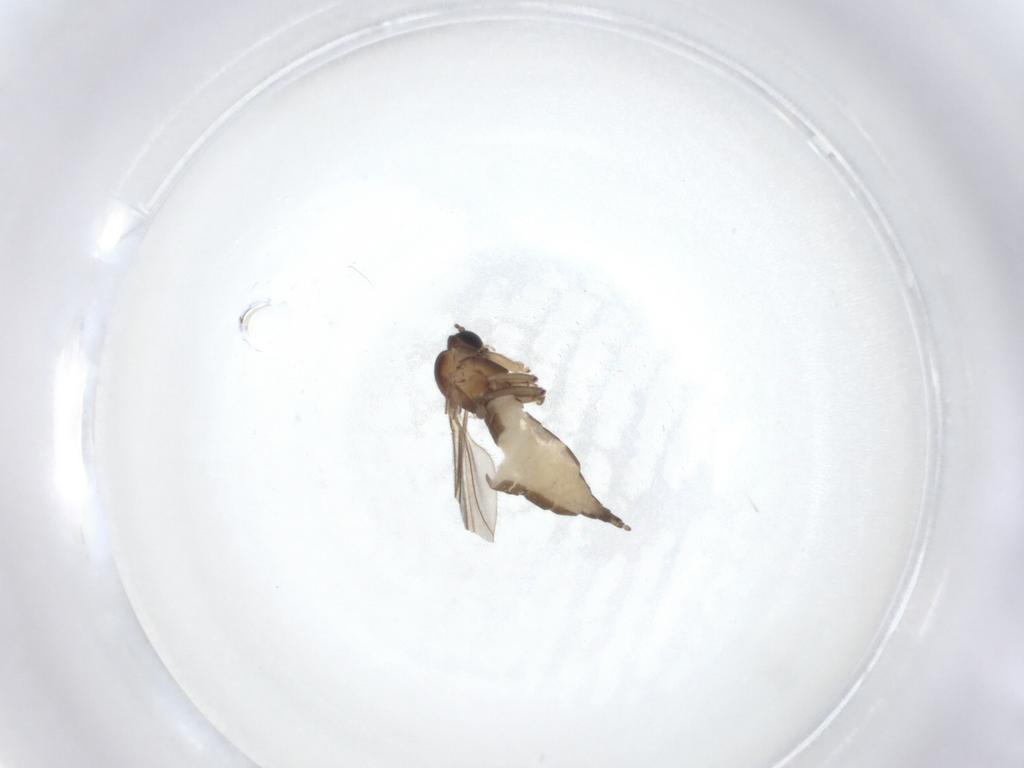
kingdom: Animalia
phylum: Arthropoda
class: Insecta
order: Diptera
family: Sciaridae
